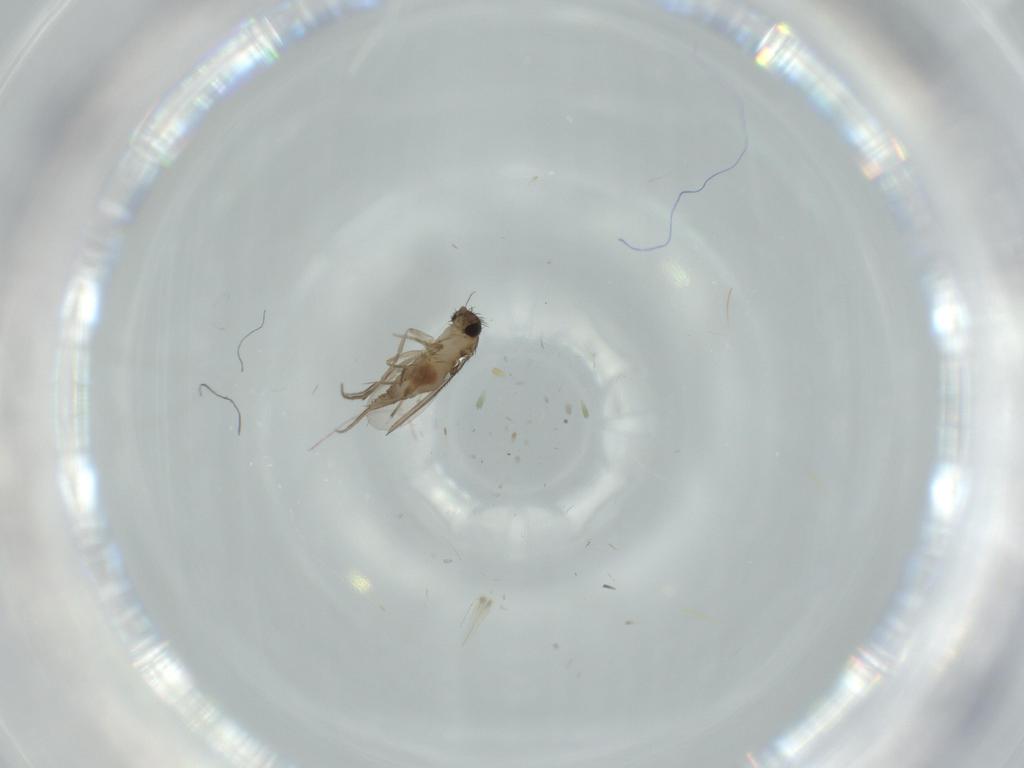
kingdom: Animalia
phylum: Arthropoda
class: Insecta
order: Diptera
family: Phoridae
